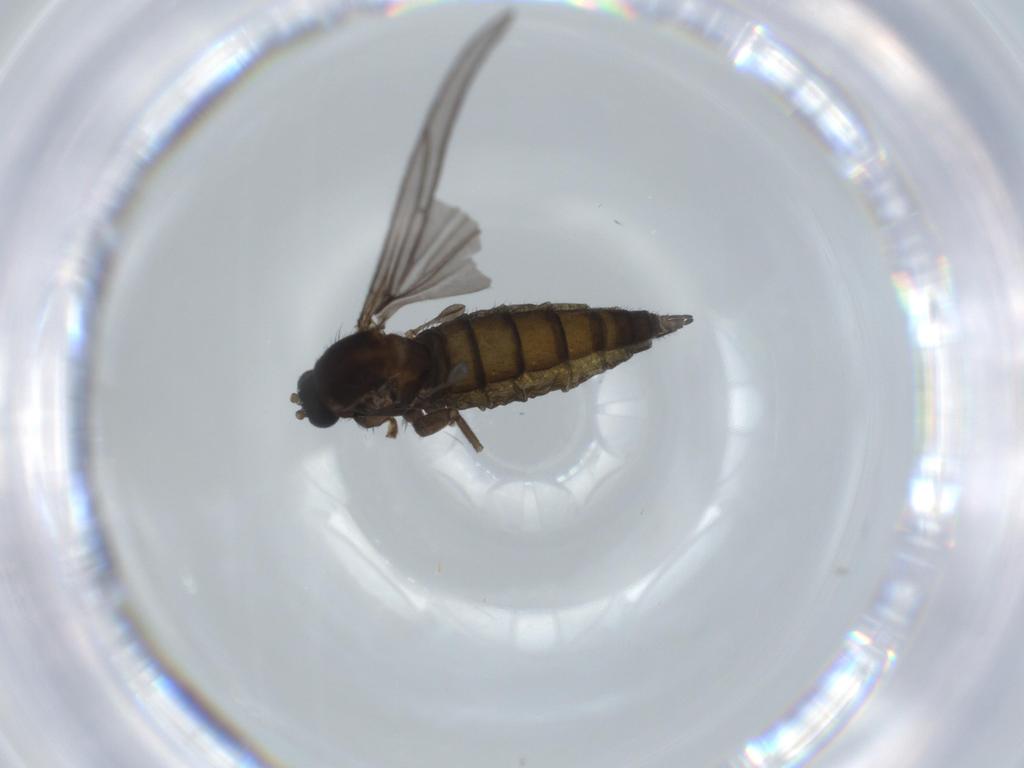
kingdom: Animalia
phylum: Arthropoda
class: Insecta
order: Diptera
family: Sciaridae
